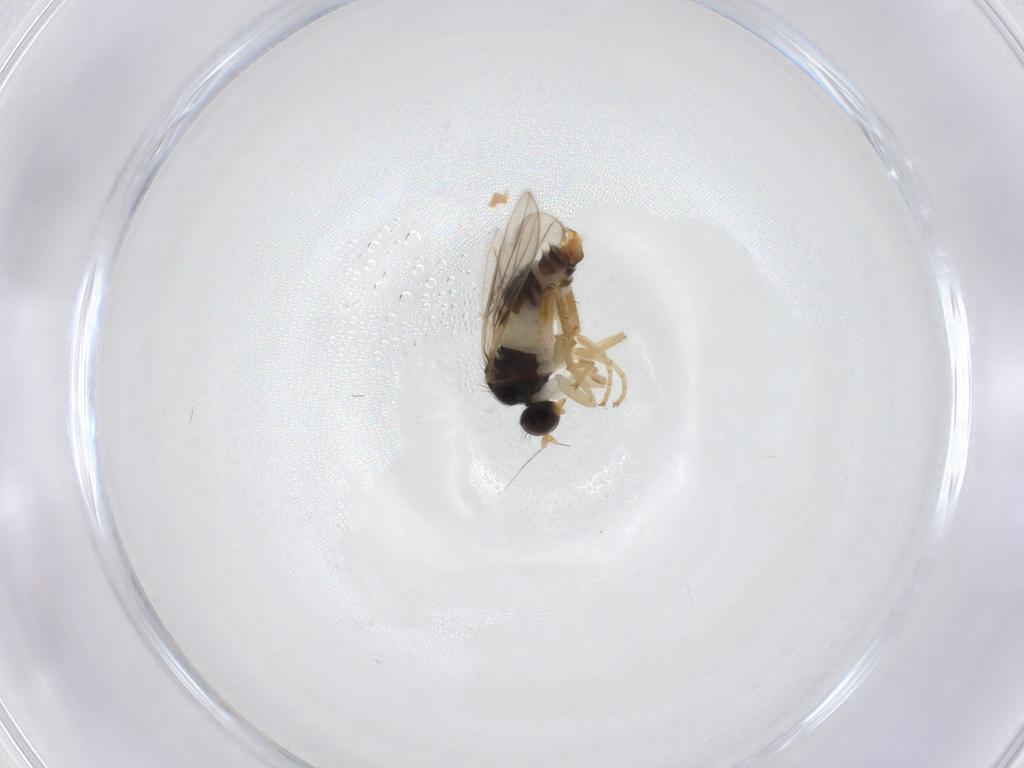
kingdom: Animalia
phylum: Arthropoda
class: Insecta
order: Diptera
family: Hybotidae
